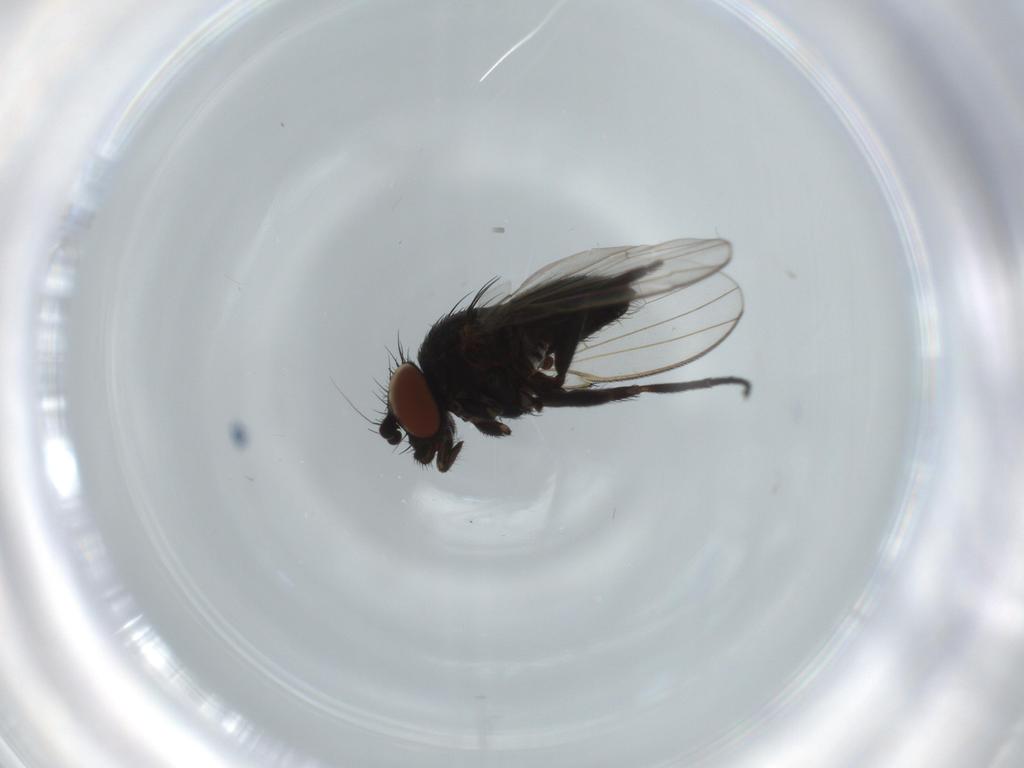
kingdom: Animalia
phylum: Arthropoda
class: Insecta
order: Diptera
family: Milichiidae
